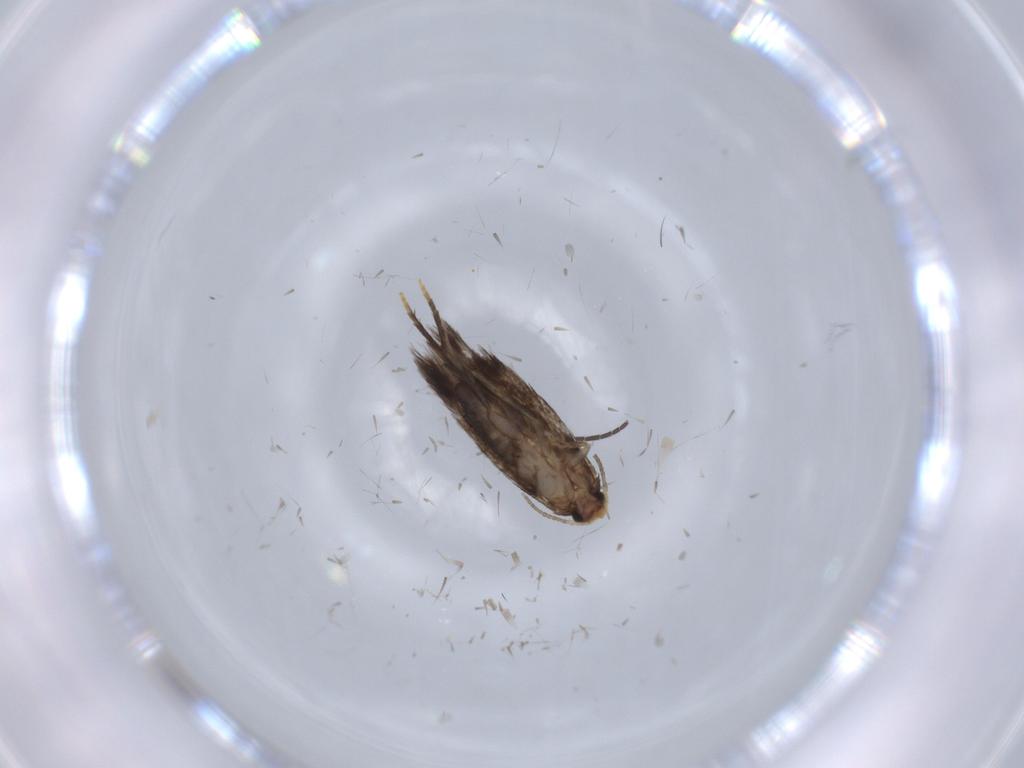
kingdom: Animalia
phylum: Arthropoda
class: Insecta
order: Lepidoptera
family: Nepticulidae
